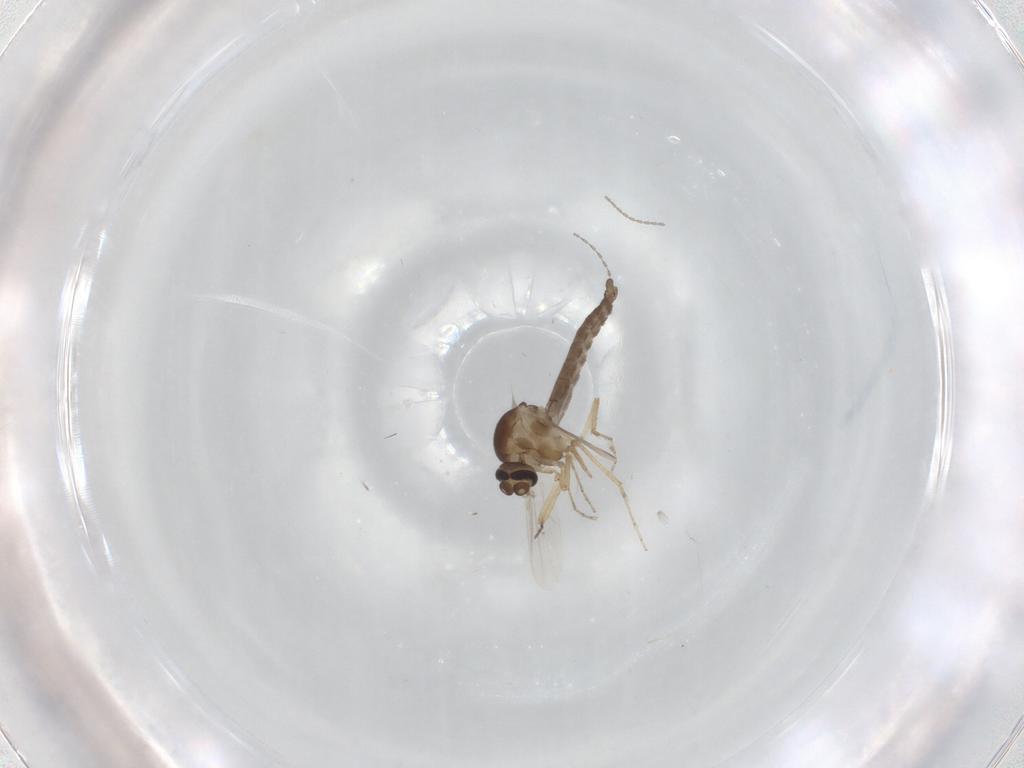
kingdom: Animalia
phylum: Arthropoda
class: Insecta
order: Diptera
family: Ceratopogonidae
